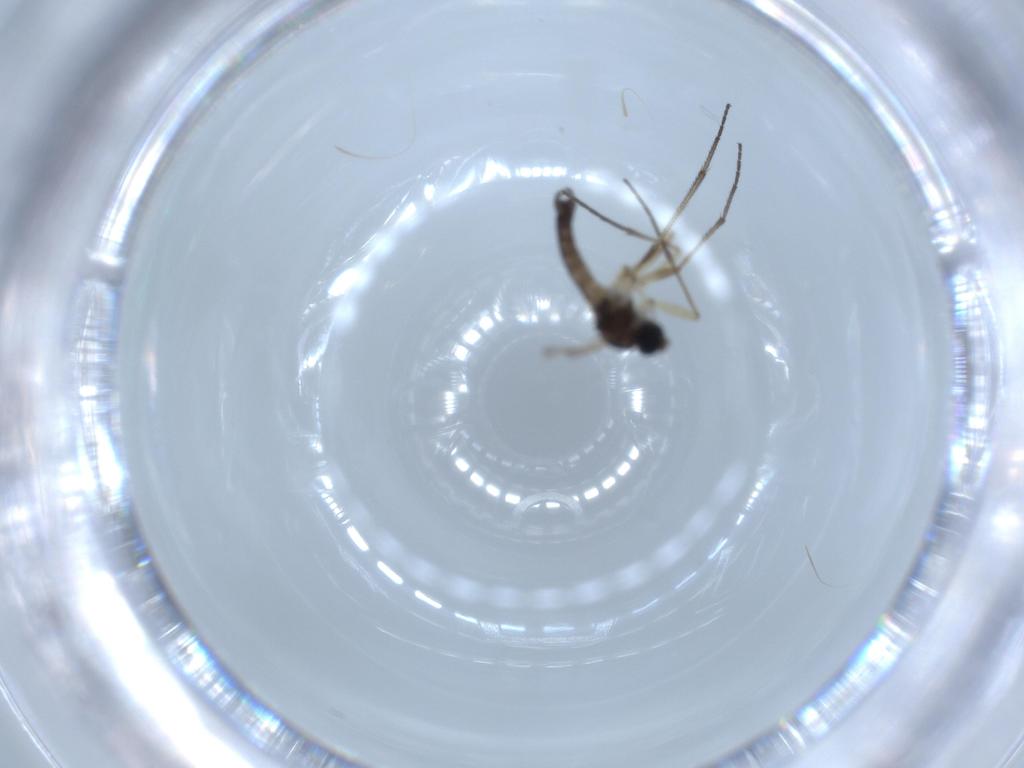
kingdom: Animalia
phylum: Arthropoda
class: Insecta
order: Diptera
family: Sciaridae
